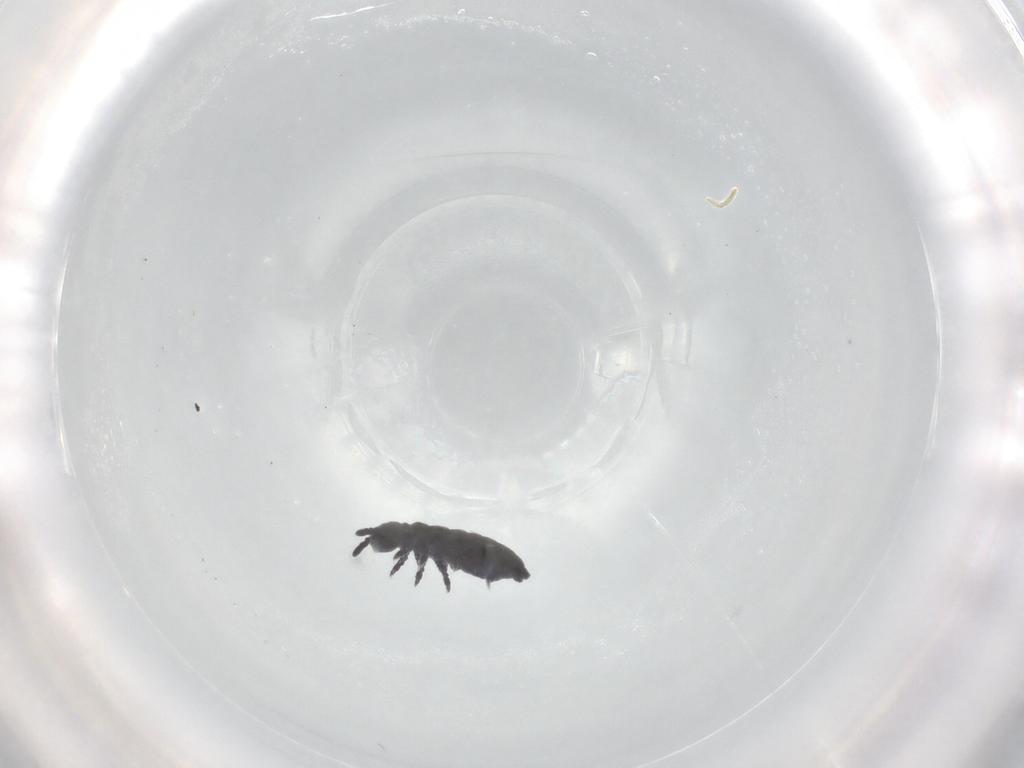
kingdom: Animalia
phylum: Arthropoda
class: Collembola
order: Poduromorpha
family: Hypogastruridae
